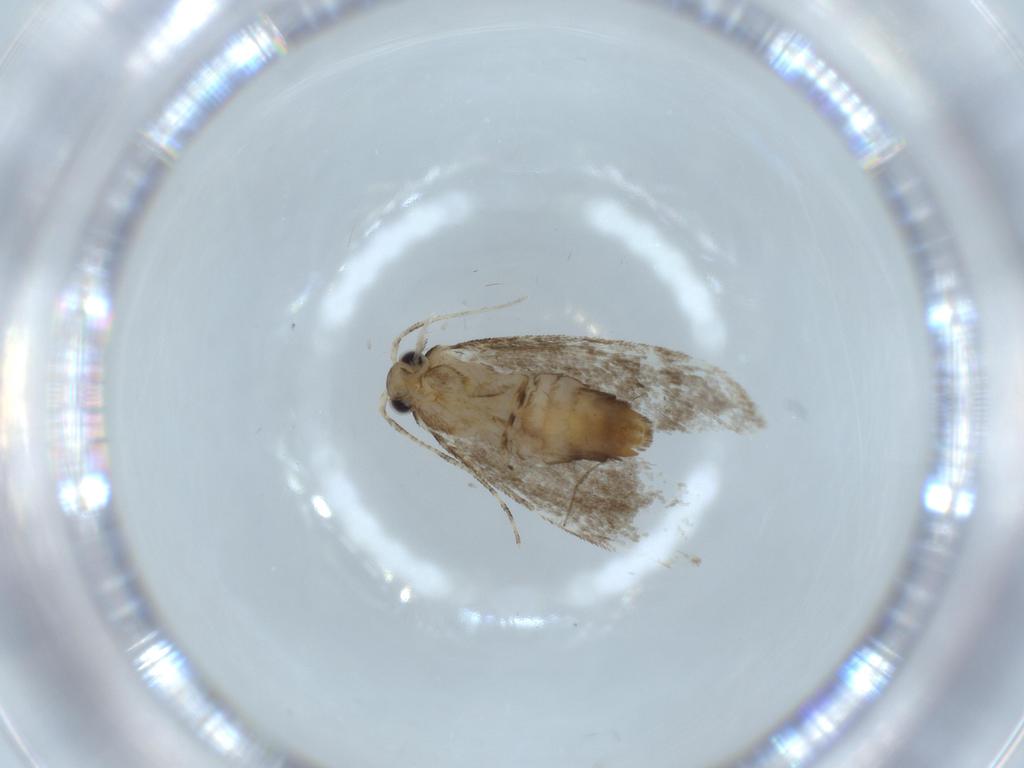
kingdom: Animalia
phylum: Arthropoda
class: Insecta
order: Lepidoptera
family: Tineidae
